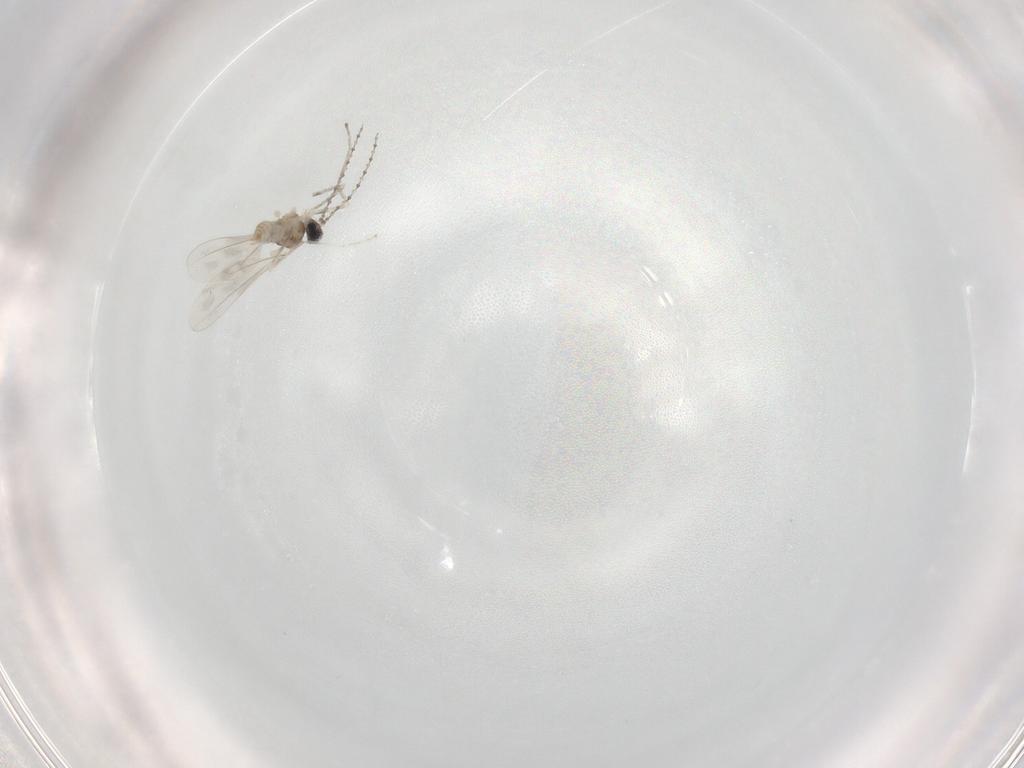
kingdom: Animalia
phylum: Arthropoda
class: Insecta
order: Diptera
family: Cecidomyiidae
